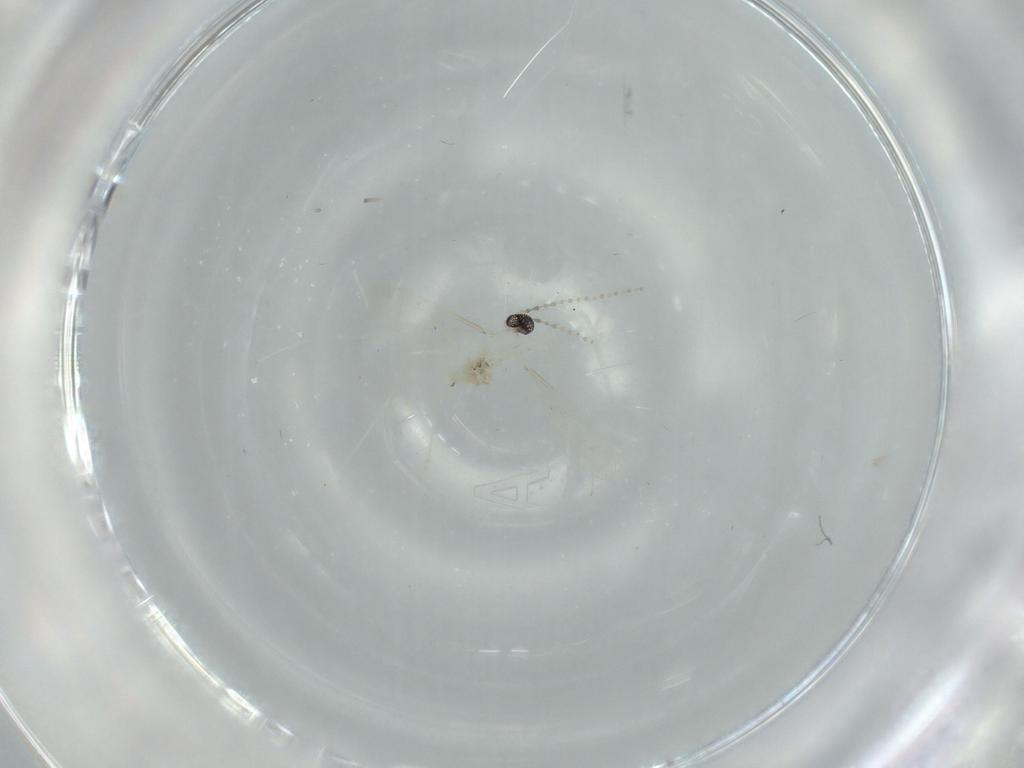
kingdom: Animalia
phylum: Arthropoda
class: Insecta
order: Diptera
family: Cecidomyiidae
